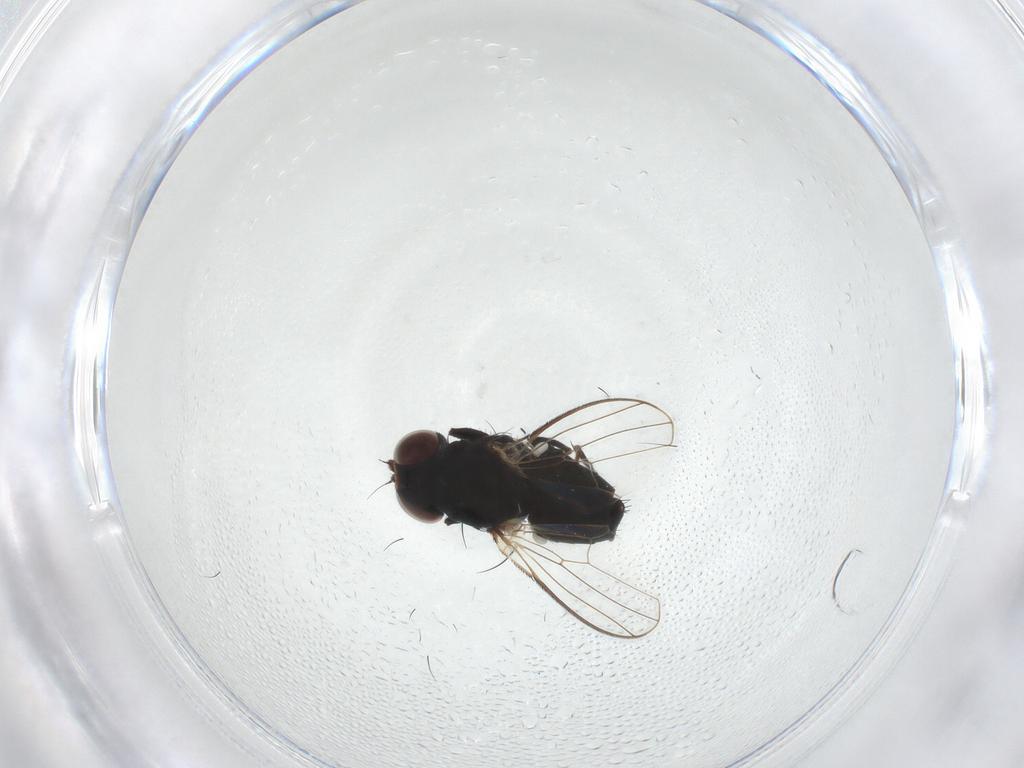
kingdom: Animalia
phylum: Arthropoda
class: Insecta
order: Diptera
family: Carnidae
